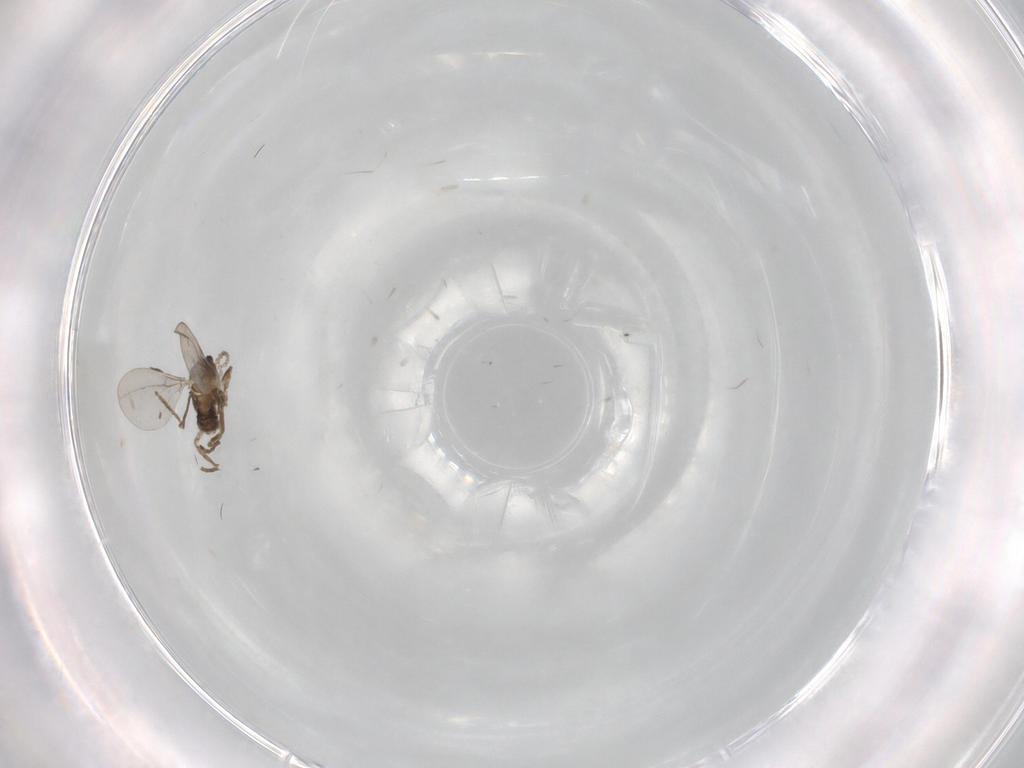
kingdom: Animalia
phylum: Arthropoda
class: Insecta
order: Diptera
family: Cecidomyiidae
